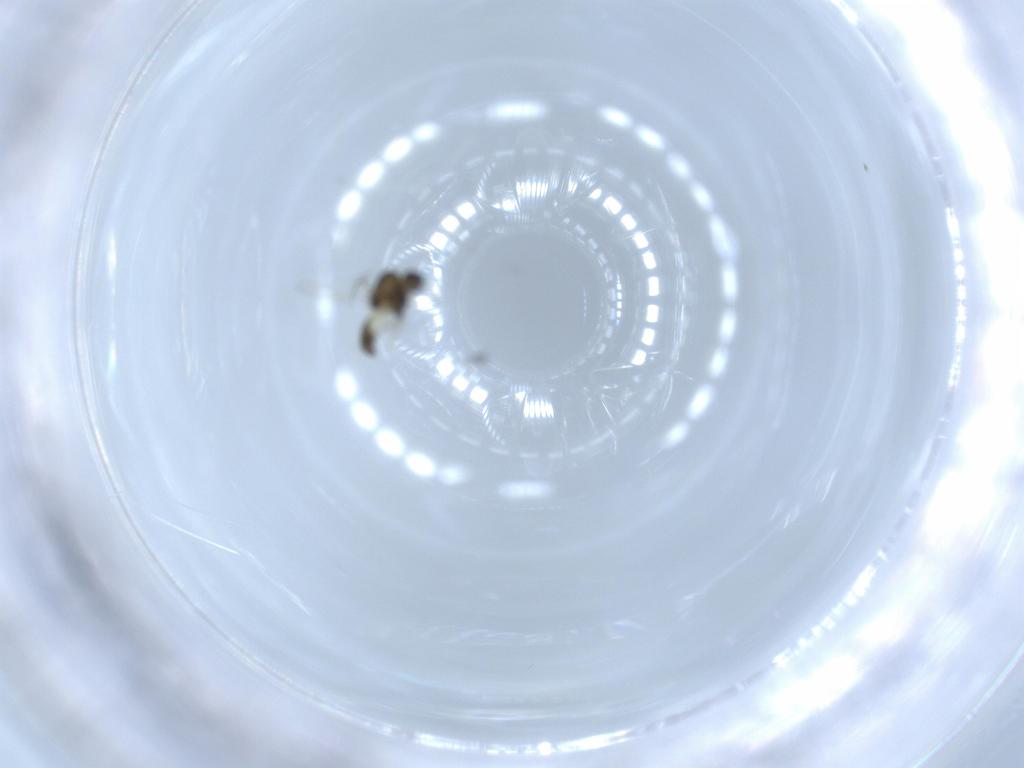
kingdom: Animalia
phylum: Arthropoda
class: Insecta
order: Diptera
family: Chironomidae
